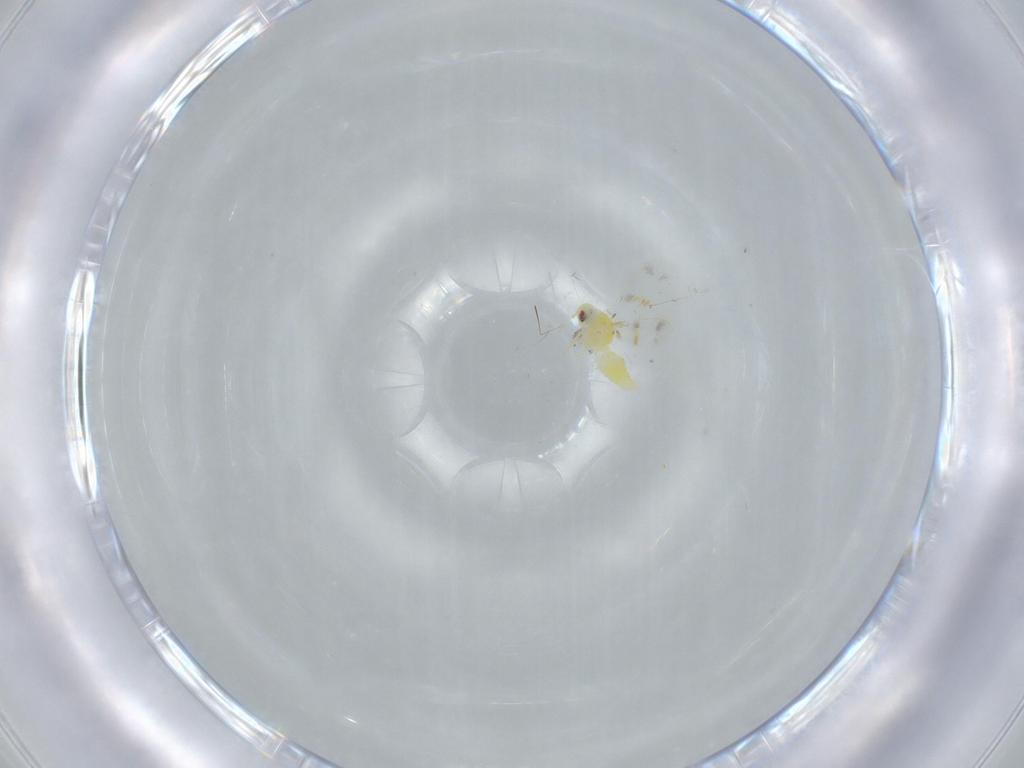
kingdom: Animalia
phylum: Arthropoda
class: Insecta
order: Hemiptera
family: Aleyrodidae
